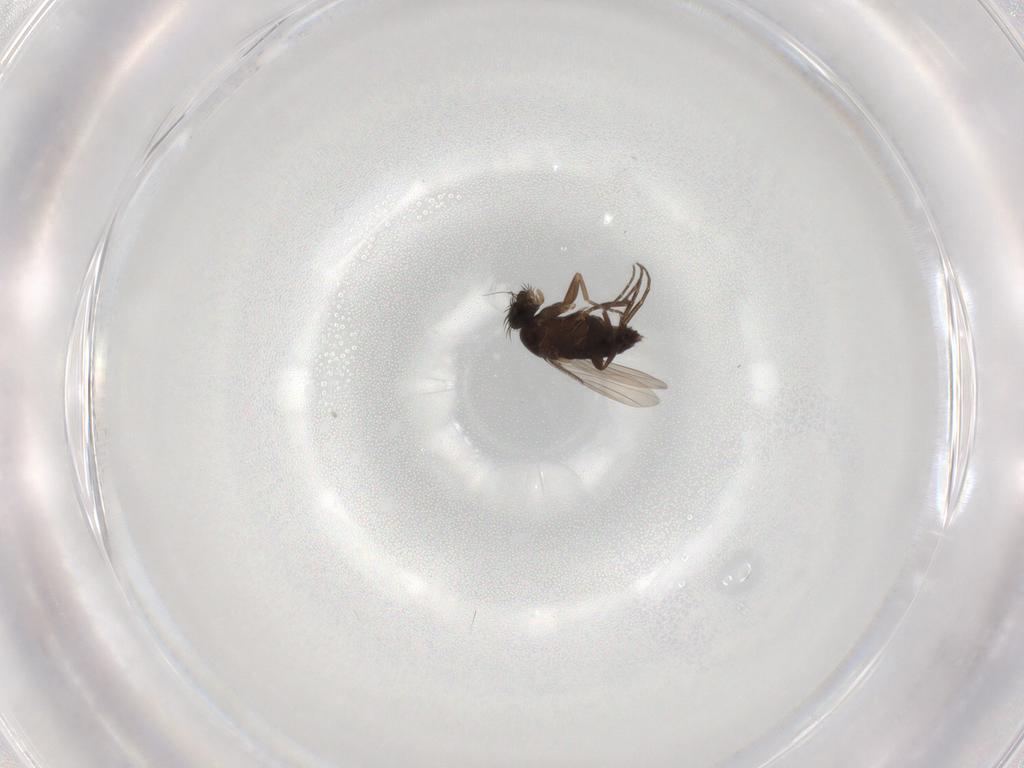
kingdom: Animalia
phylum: Arthropoda
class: Insecta
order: Diptera
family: Phoridae
